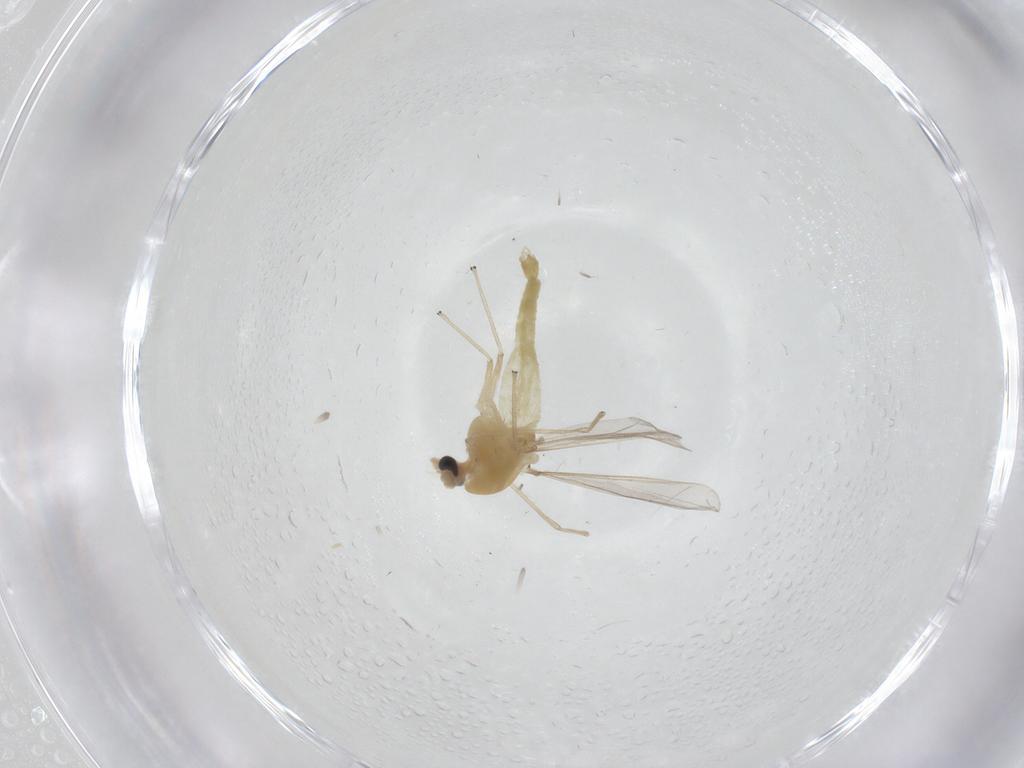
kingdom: Animalia
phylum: Arthropoda
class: Insecta
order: Diptera
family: Chironomidae
